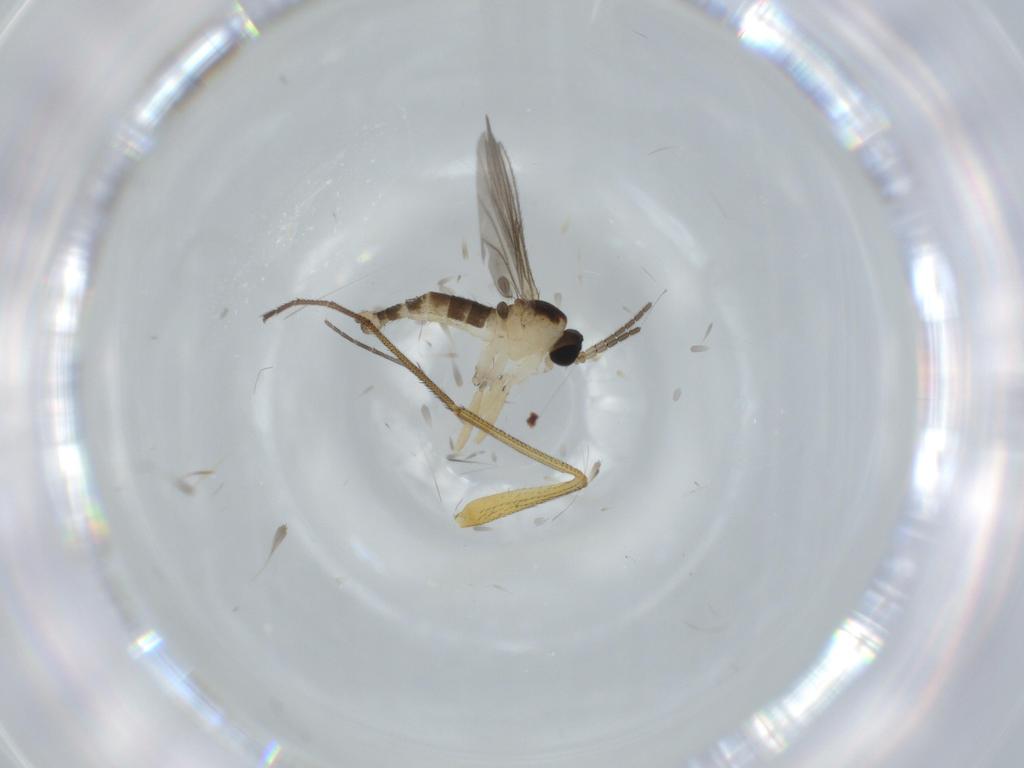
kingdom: Animalia
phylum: Arthropoda
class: Insecta
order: Diptera
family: Sciaridae
